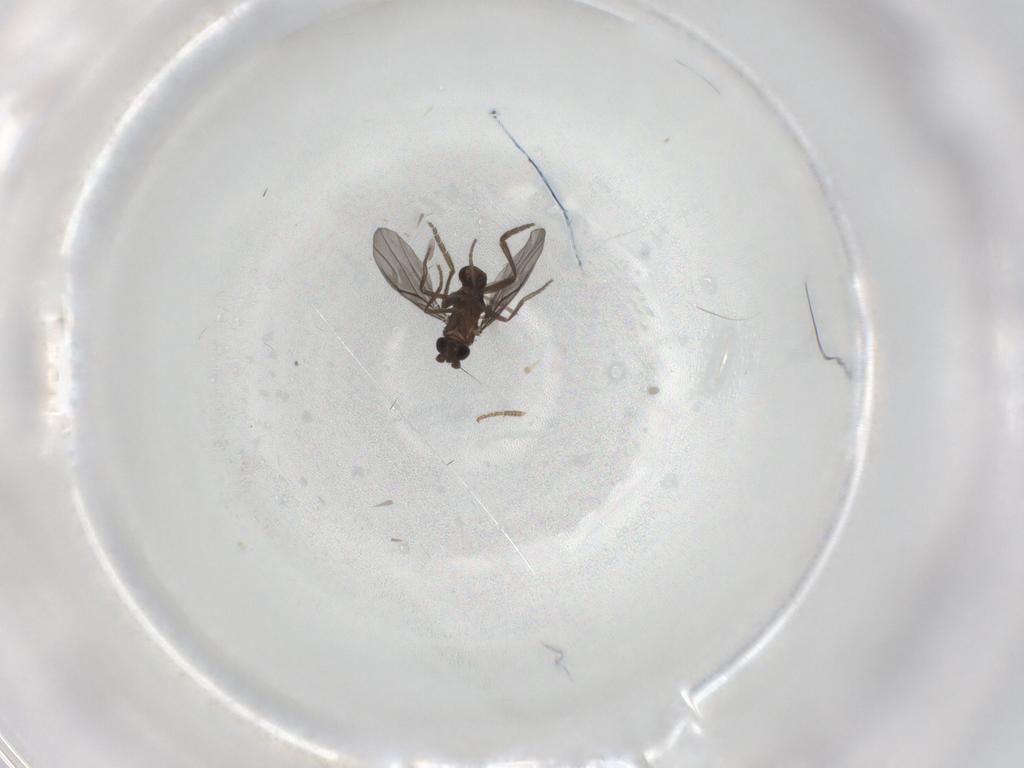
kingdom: Animalia
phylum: Arthropoda
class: Insecta
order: Diptera
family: Phoridae
